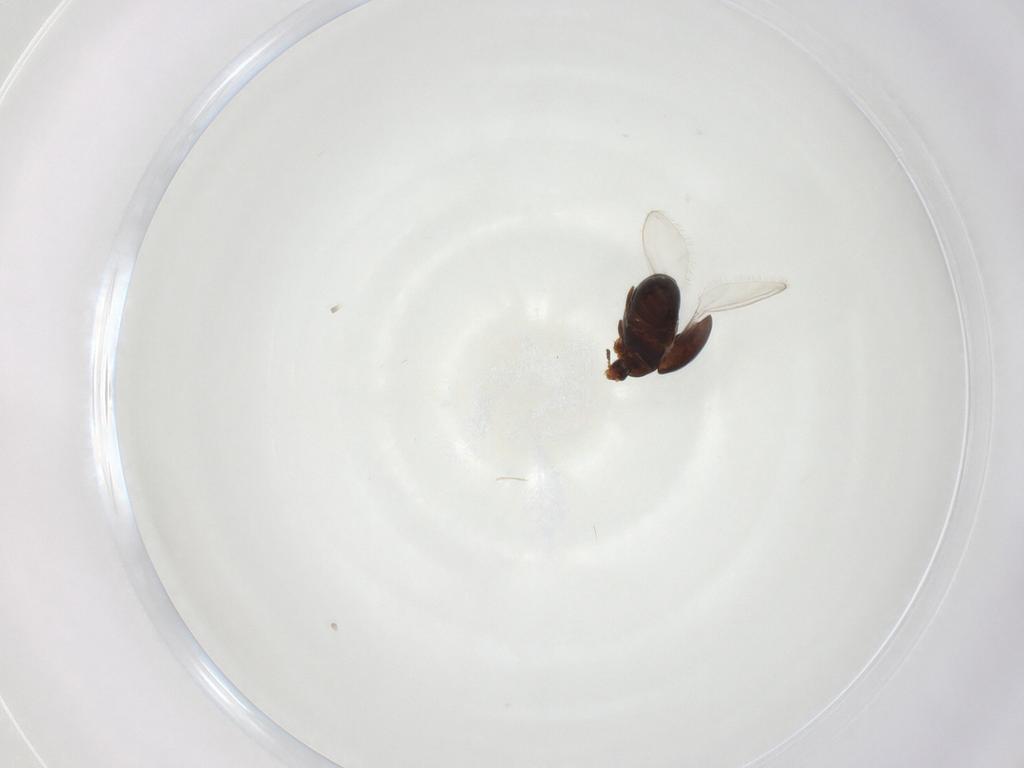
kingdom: Animalia
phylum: Arthropoda
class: Insecta
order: Coleoptera
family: Corylophidae
